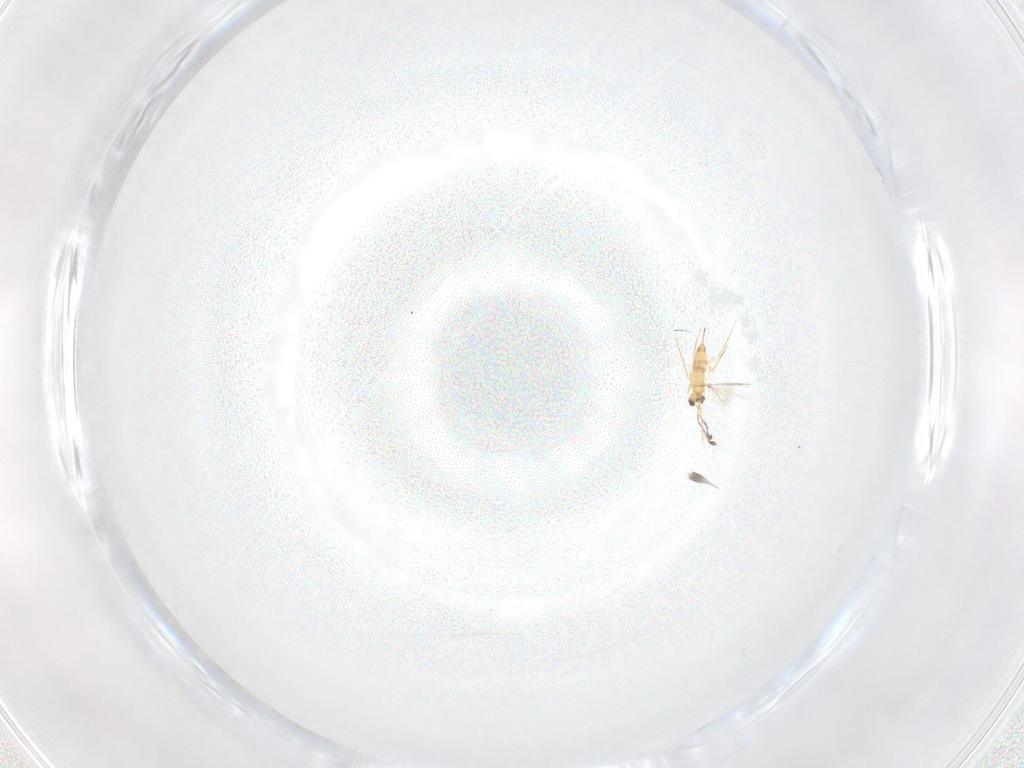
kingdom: Animalia
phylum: Arthropoda
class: Insecta
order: Hymenoptera
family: Mymaridae
